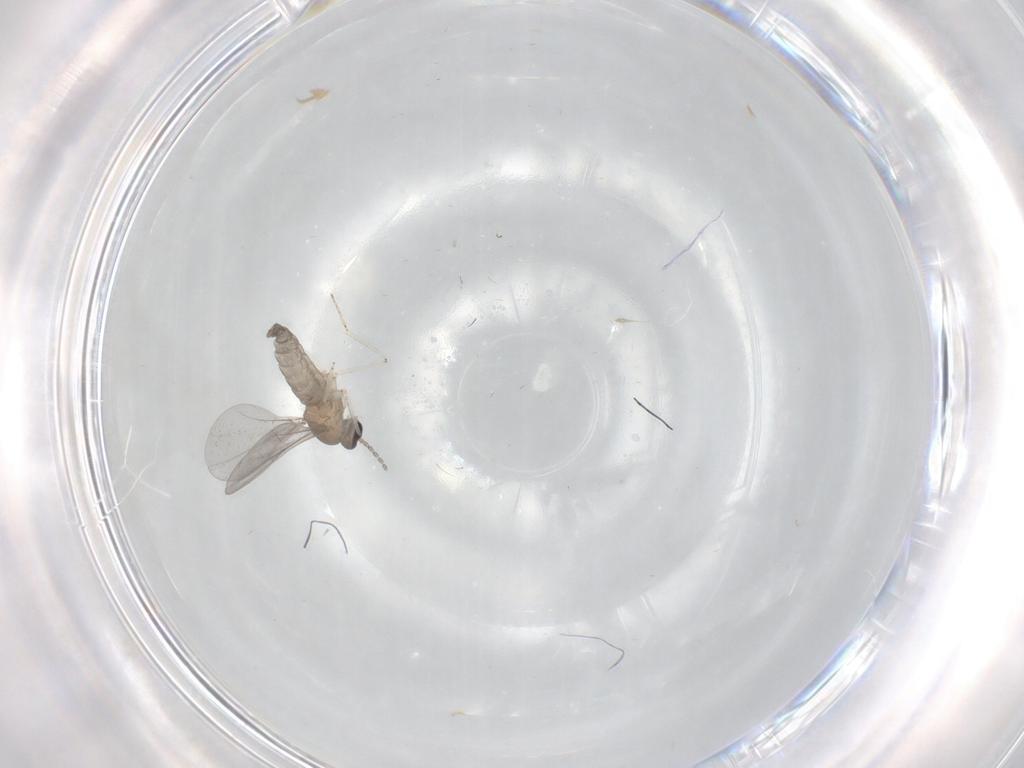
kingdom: Animalia
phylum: Arthropoda
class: Insecta
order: Diptera
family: Cecidomyiidae
